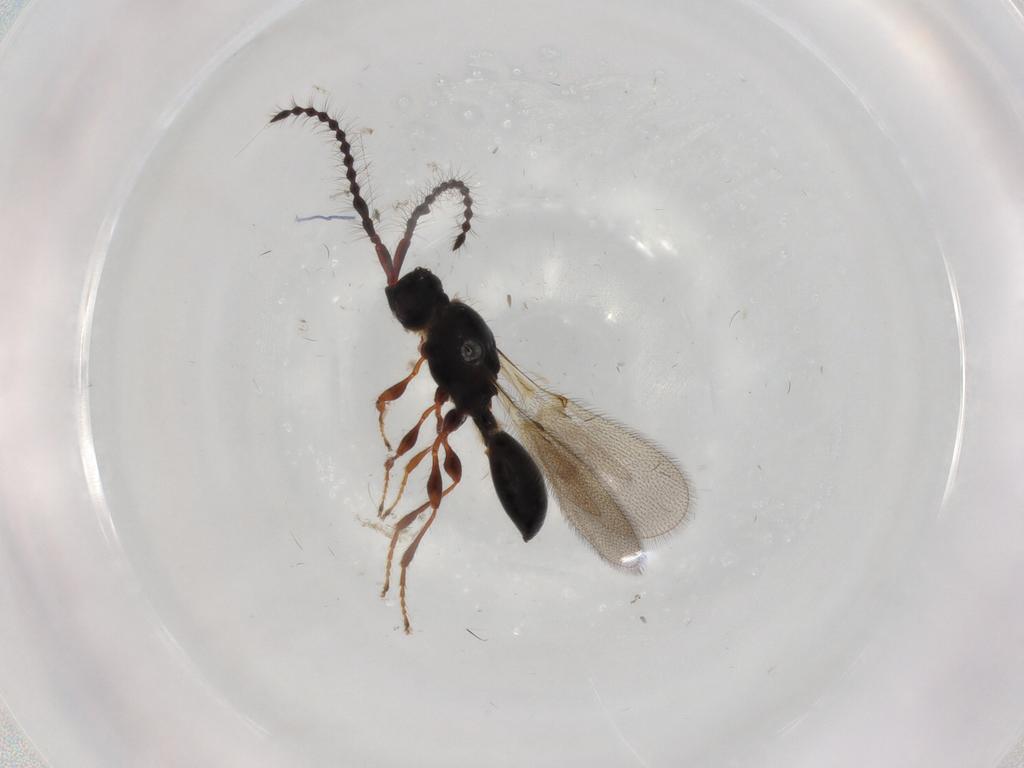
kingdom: Animalia
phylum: Arthropoda
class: Insecta
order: Hymenoptera
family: Diapriidae
